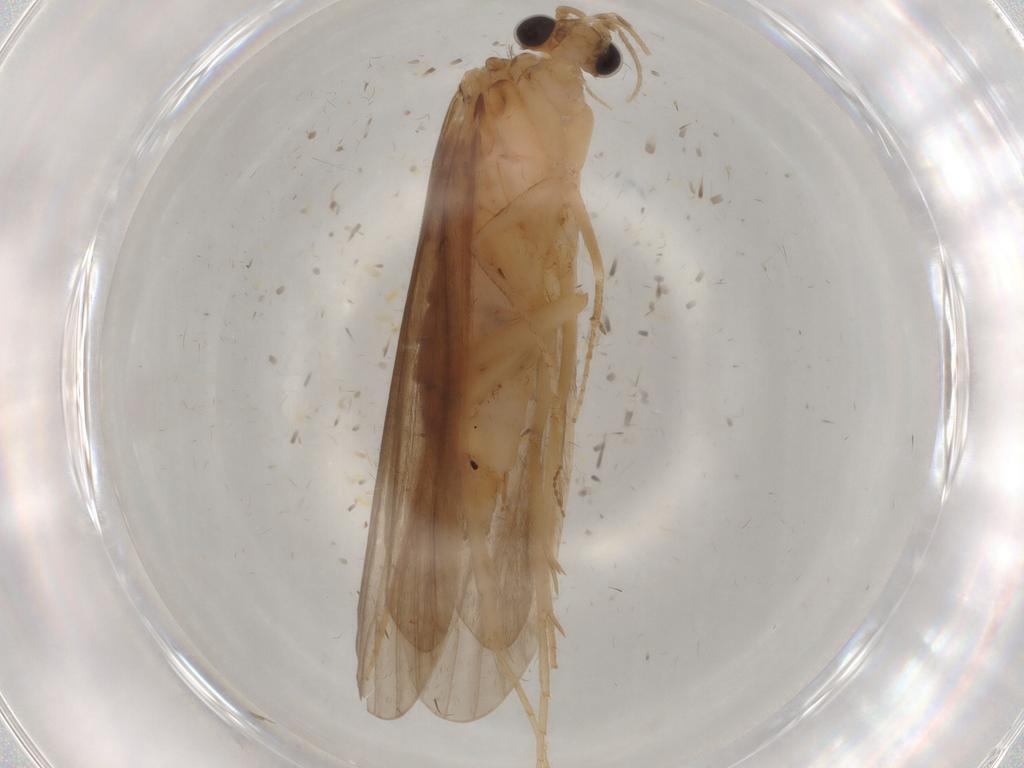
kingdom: Animalia
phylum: Arthropoda
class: Insecta
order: Trichoptera
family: Ecnomidae
